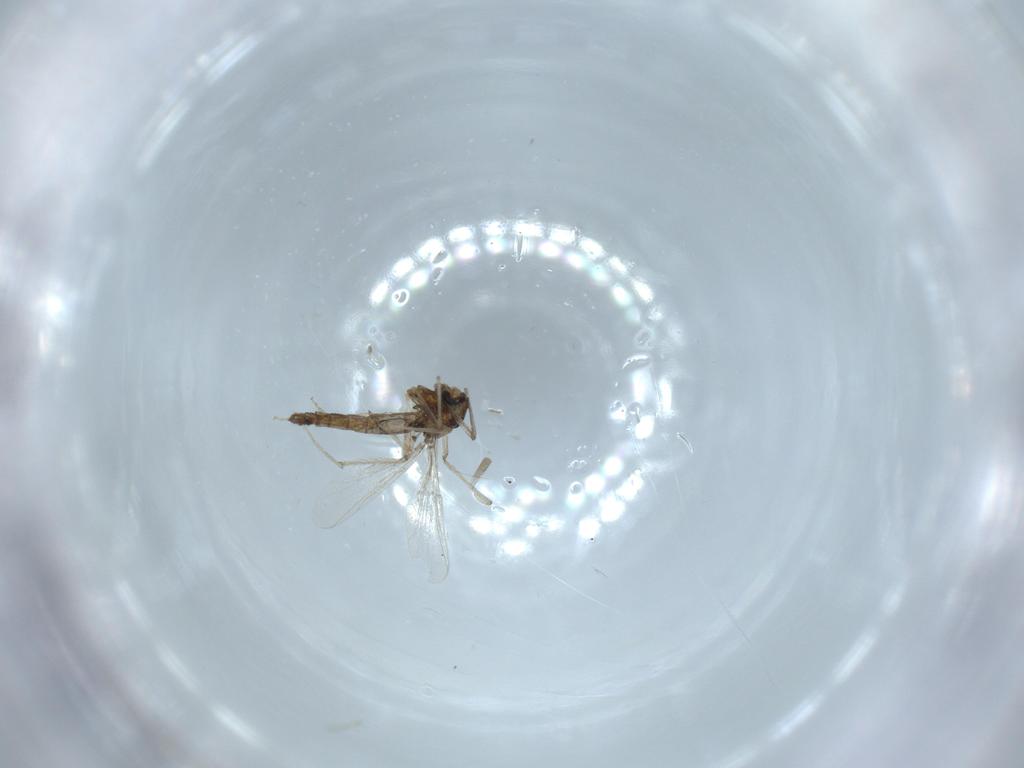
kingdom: Animalia
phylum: Arthropoda
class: Insecta
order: Diptera
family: Chironomidae
